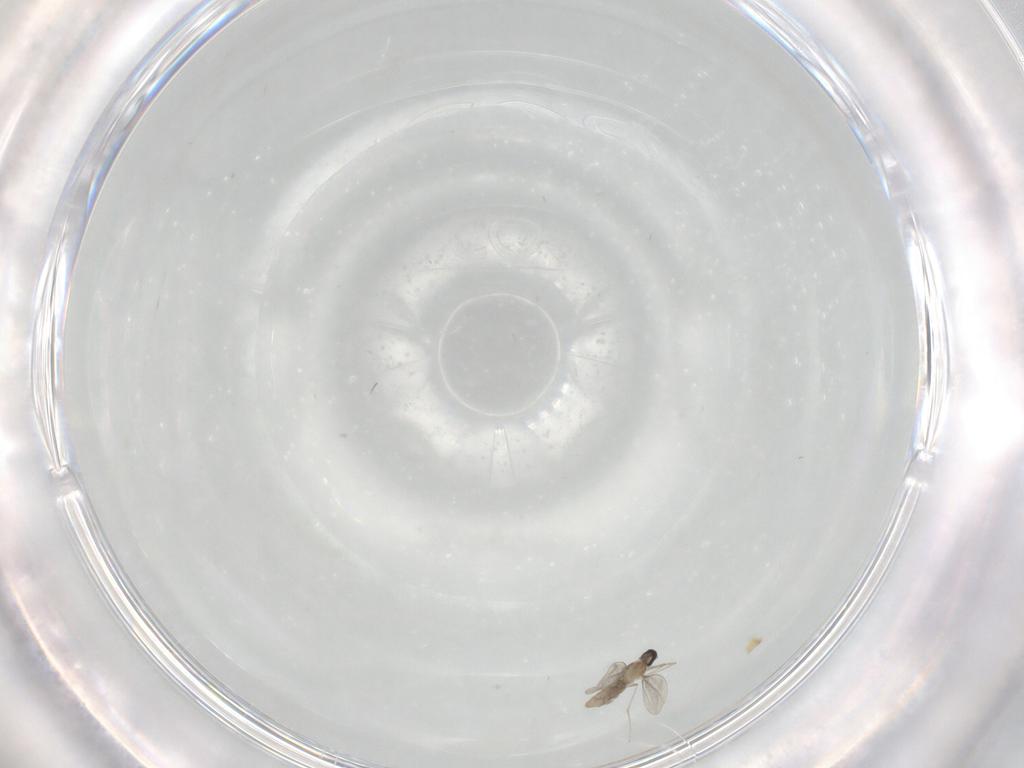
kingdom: Animalia
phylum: Arthropoda
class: Insecta
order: Diptera
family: Cecidomyiidae
